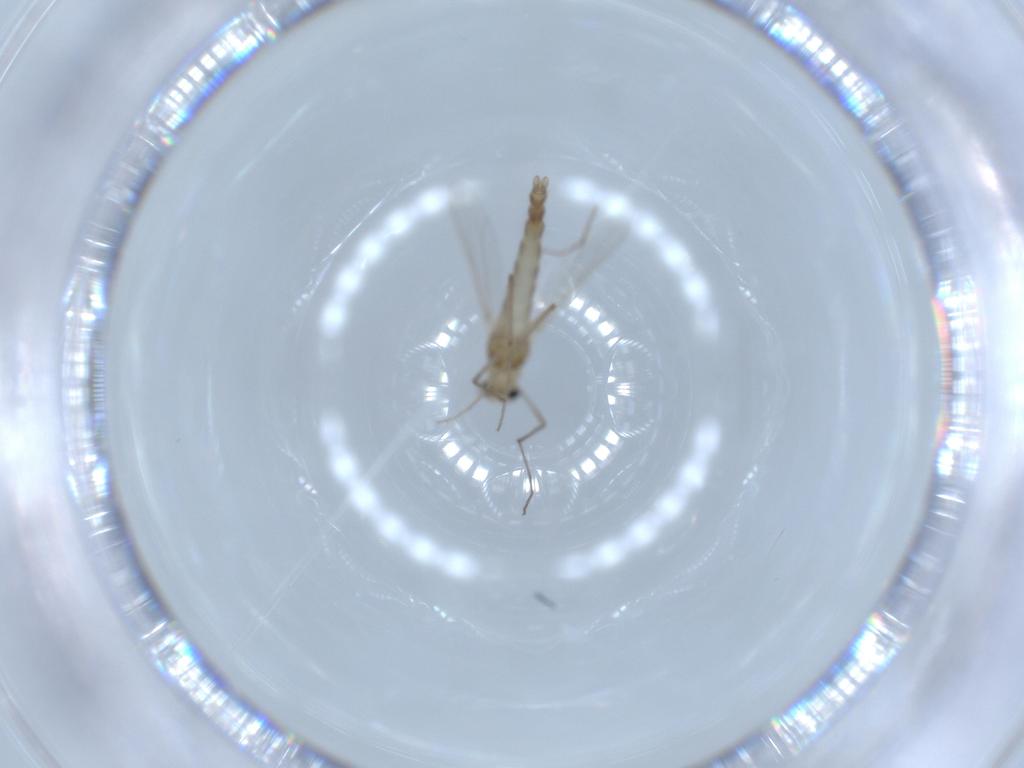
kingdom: Animalia
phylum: Arthropoda
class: Insecta
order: Diptera
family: Chironomidae
